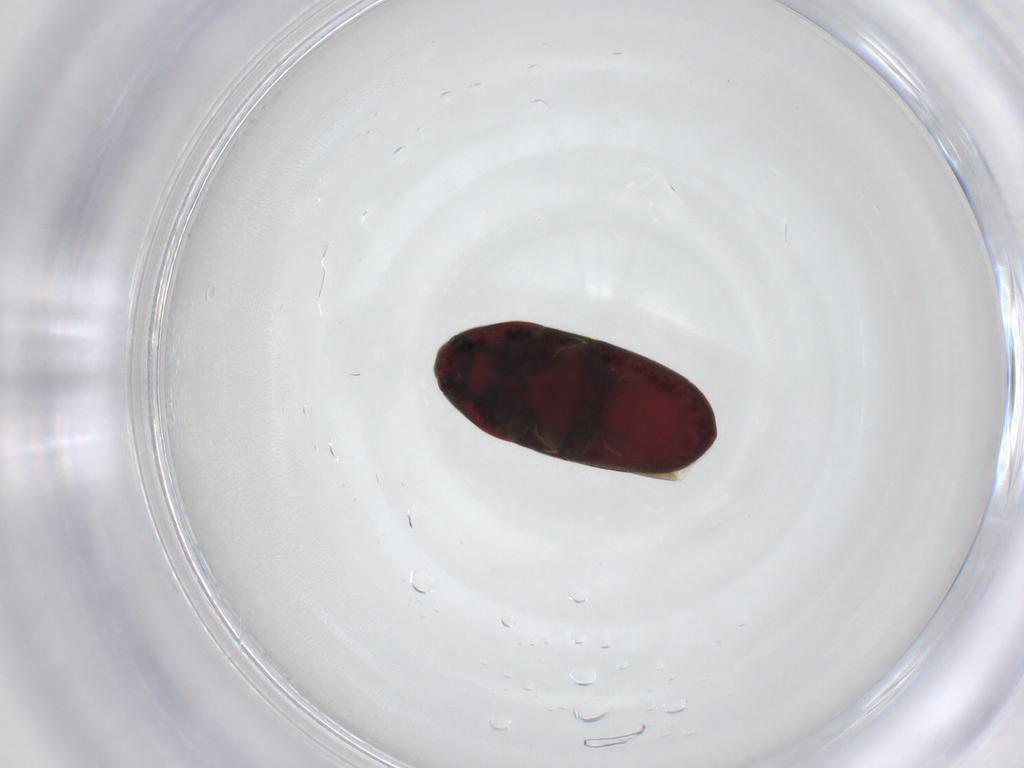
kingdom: Animalia
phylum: Arthropoda
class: Insecta
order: Coleoptera
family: Throscidae
